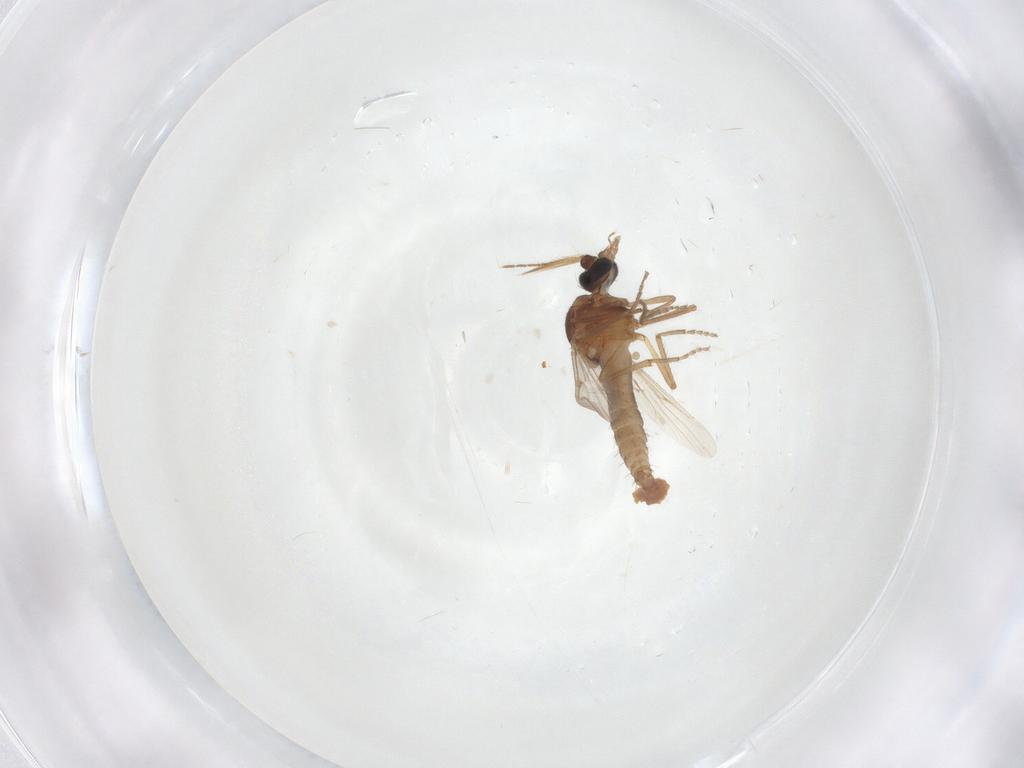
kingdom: Animalia
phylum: Arthropoda
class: Insecta
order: Diptera
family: Ceratopogonidae
